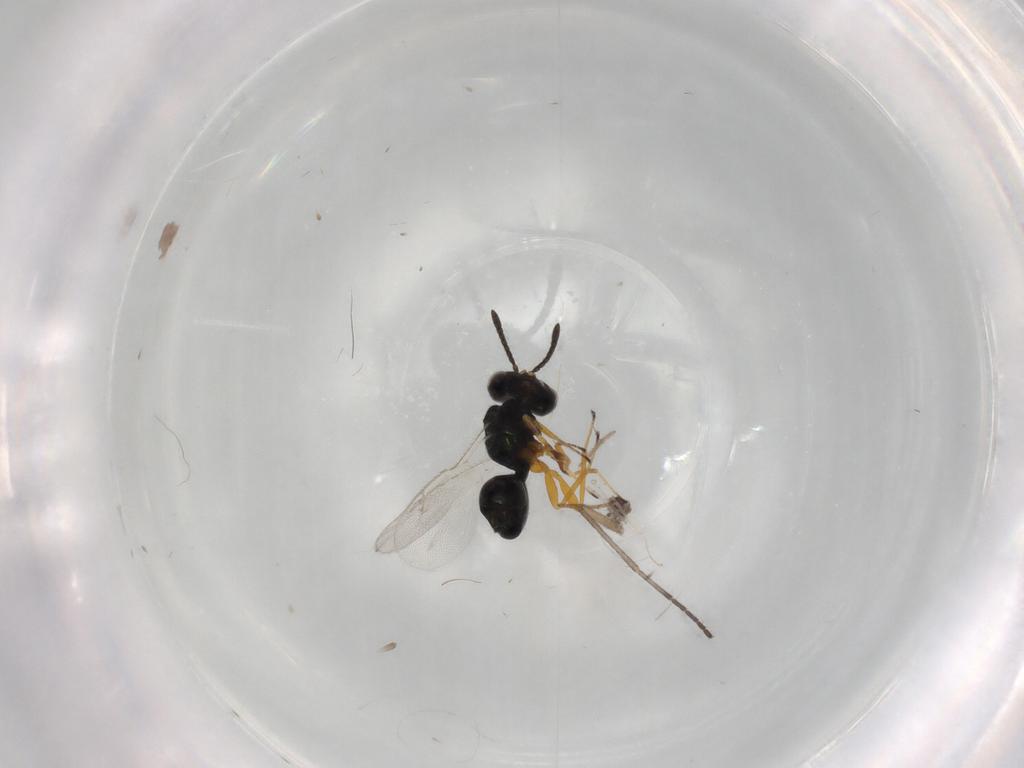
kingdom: Animalia
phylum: Arthropoda
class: Insecta
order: Hymenoptera
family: Pteromalidae
